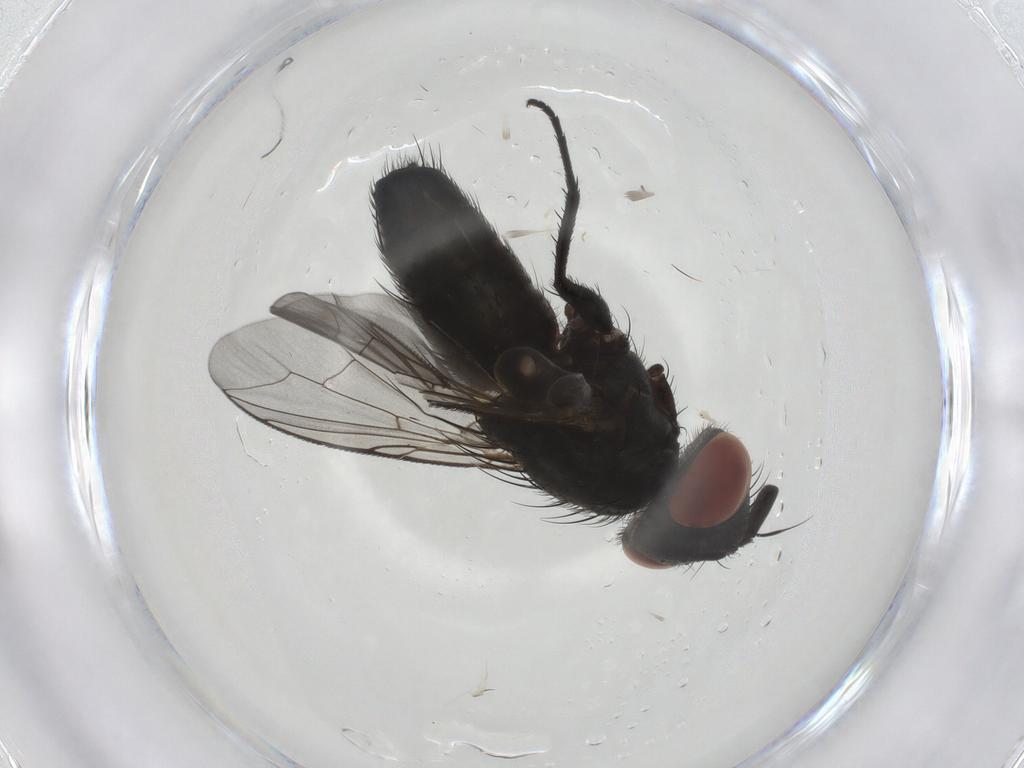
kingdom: Animalia
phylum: Arthropoda
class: Insecta
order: Diptera
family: Sarcophagidae
